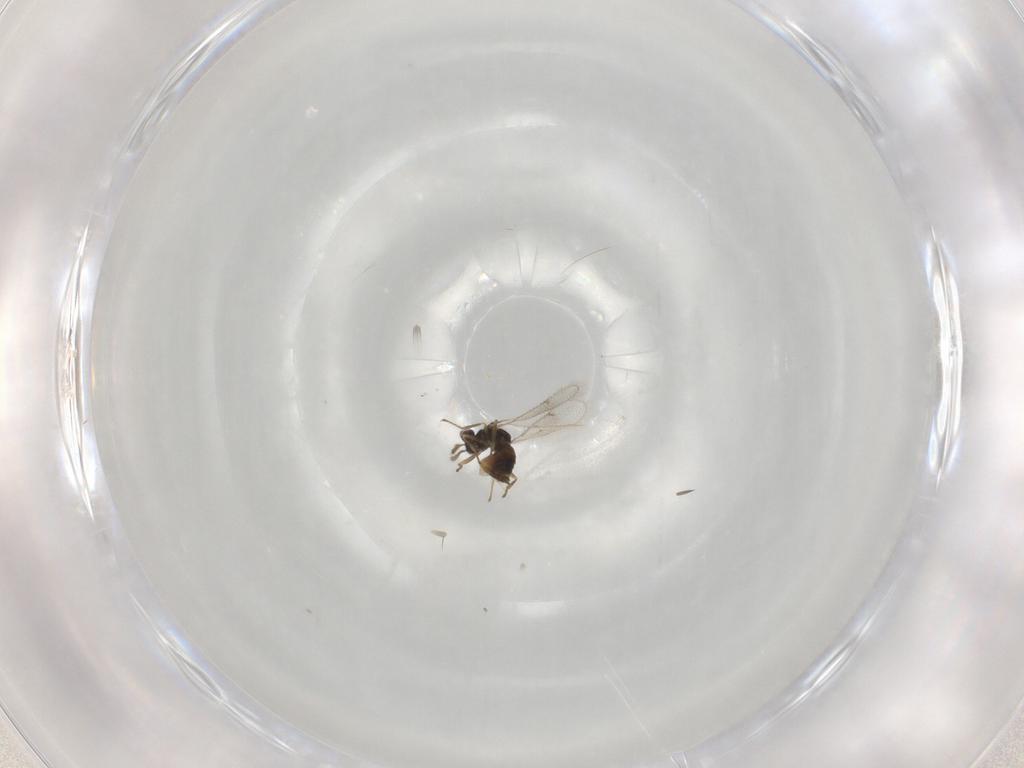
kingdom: Animalia
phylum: Arthropoda
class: Insecta
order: Hymenoptera
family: Eulophidae
